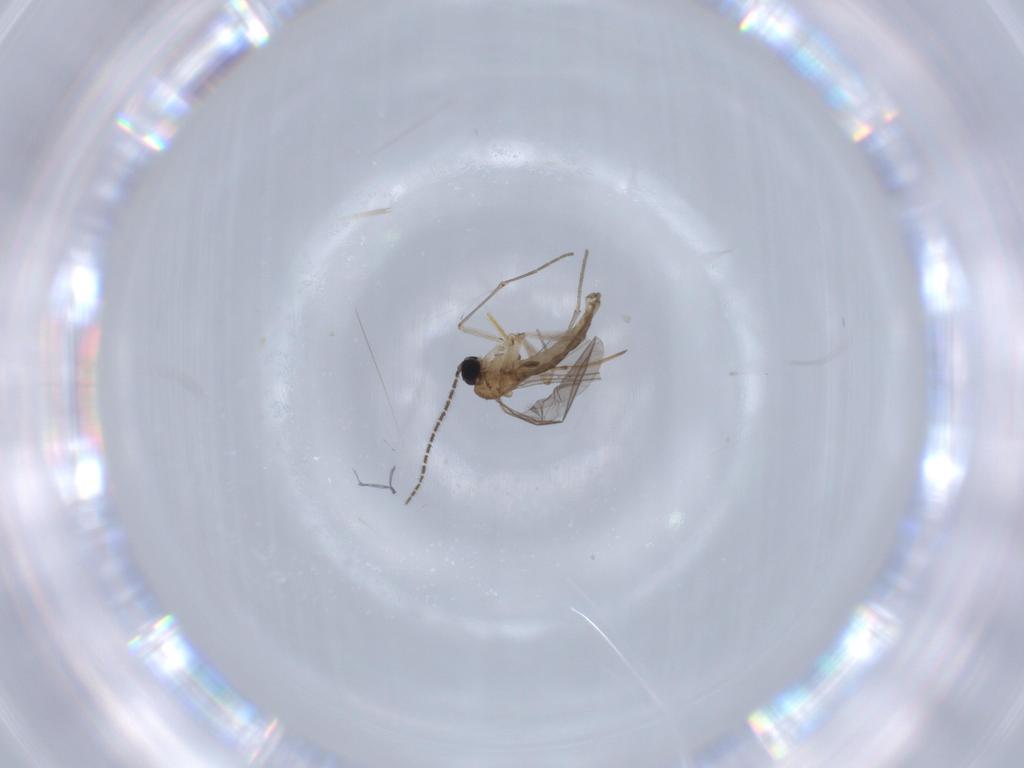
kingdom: Animalia
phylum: Arthropoda
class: Insecta
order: Diptera
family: Sciaridae
